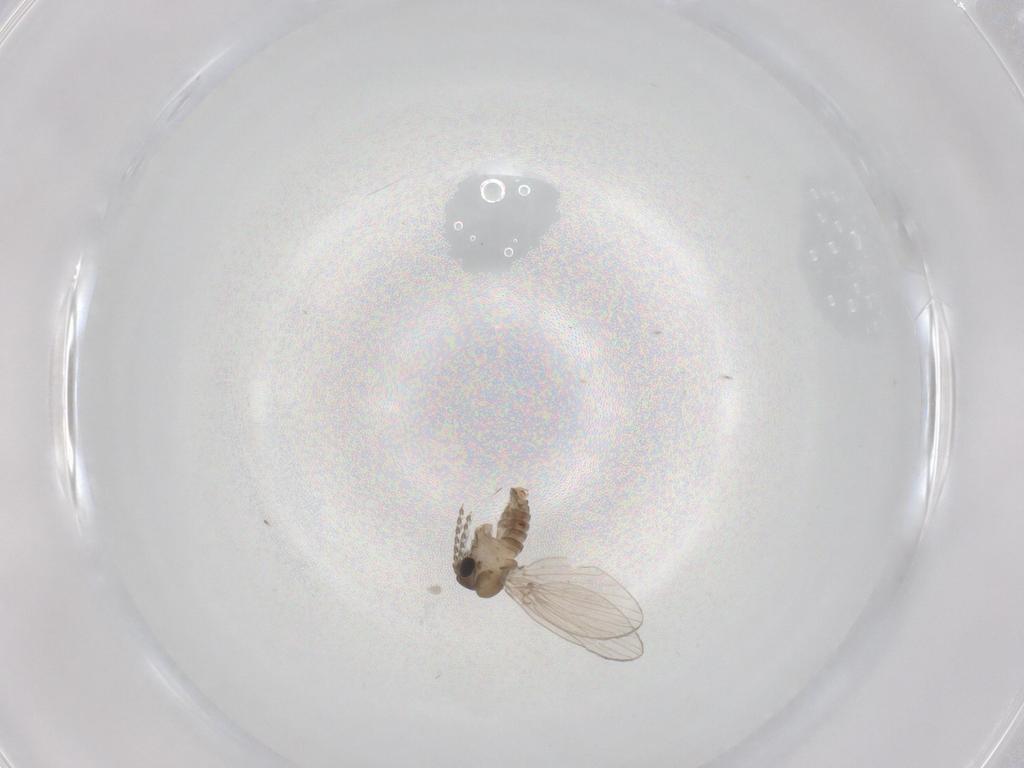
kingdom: Animalia
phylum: Arthropoda
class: Insecta
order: Diptera
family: Psychodidae
